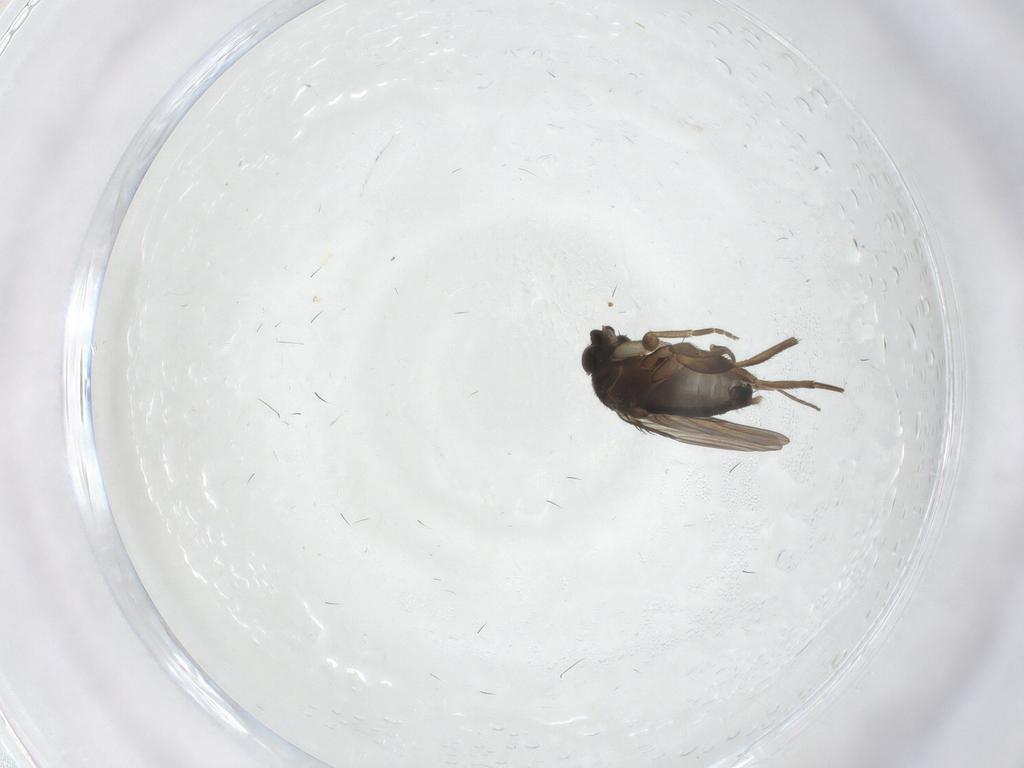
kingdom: Animalia
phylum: Arthropoda
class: Insecta
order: Diptera
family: Phoridae
